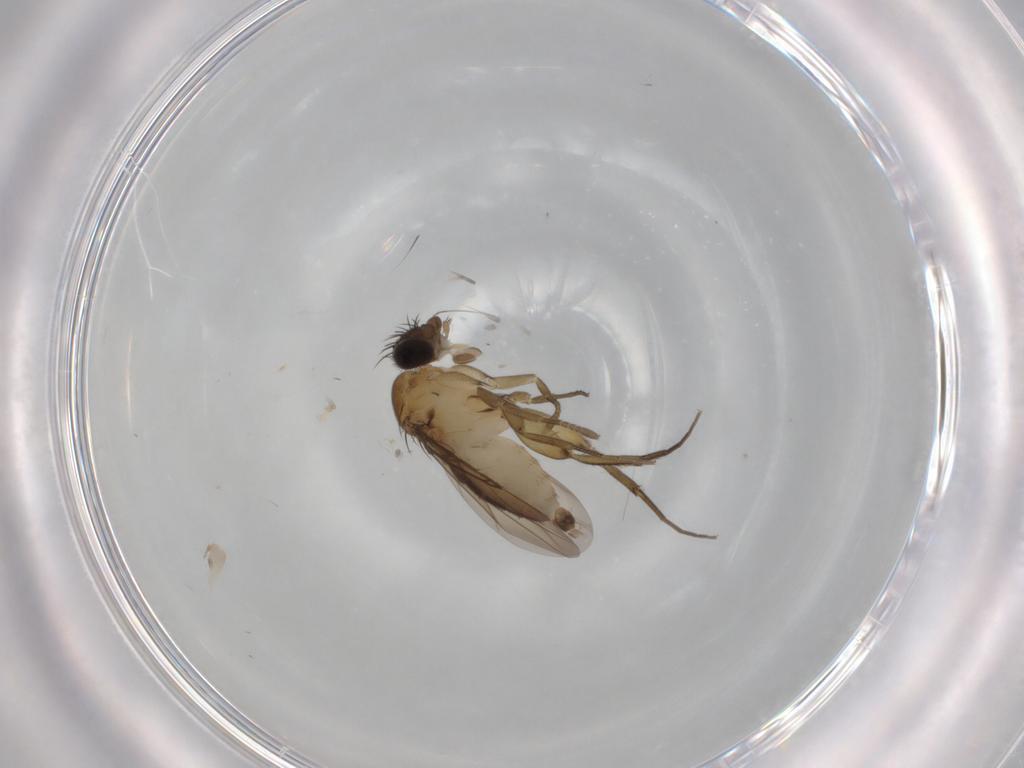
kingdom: Animalia
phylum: Arthropoda
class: Insecta
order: Diptera
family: Phoridae
